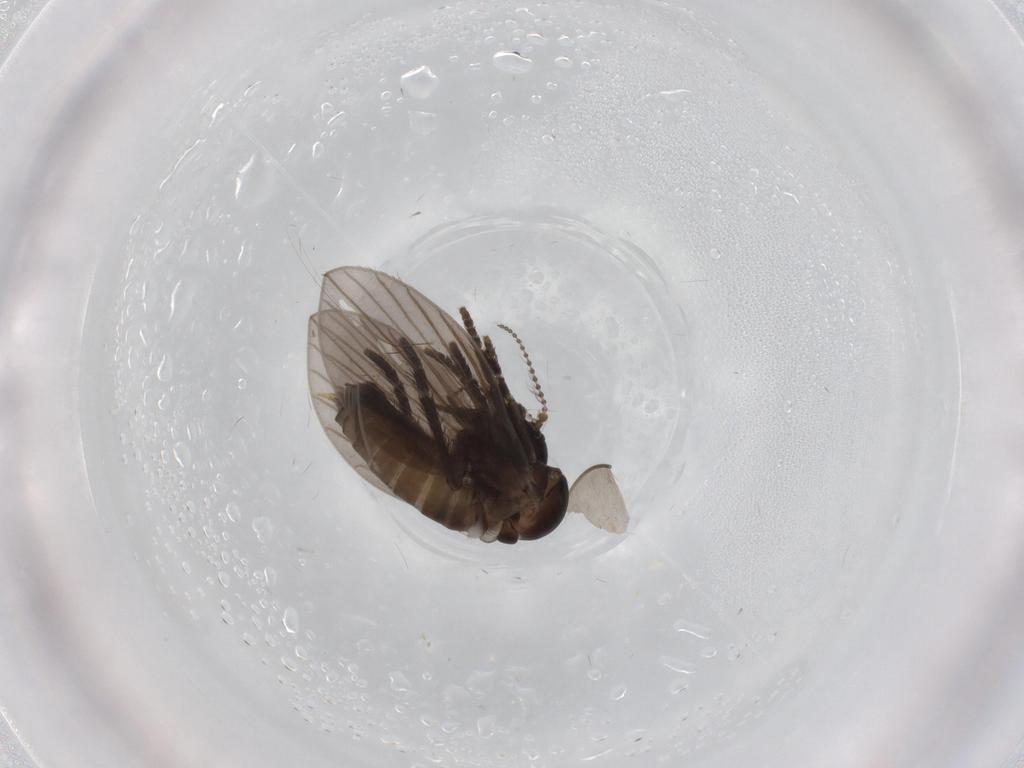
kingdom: Animalia
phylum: Arthropoda
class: Insecta
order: Diptera
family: Psychodidae
